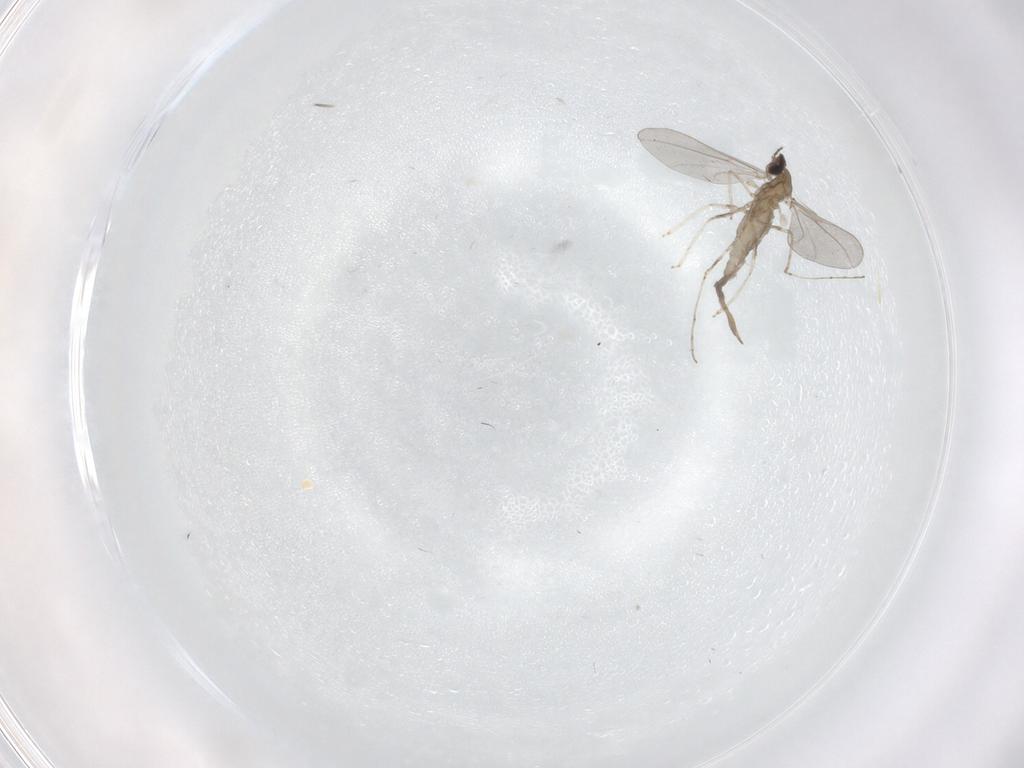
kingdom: Animalia
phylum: Arthropoda
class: Insecta
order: Diptera
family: Cecidomyiidae
